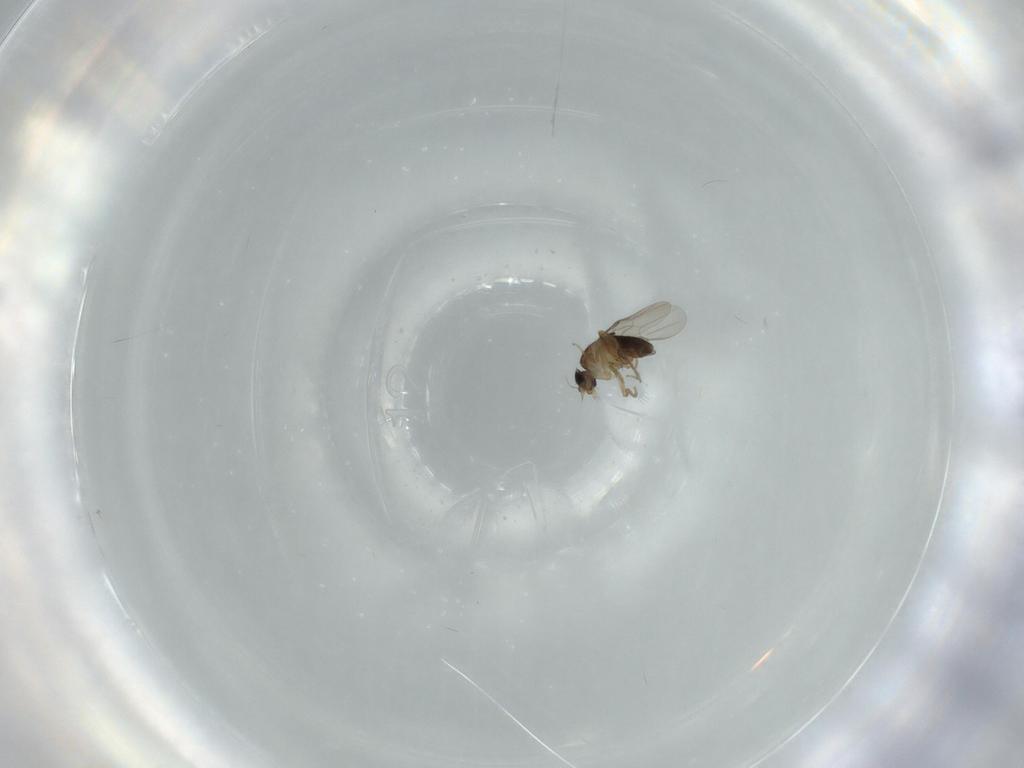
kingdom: Animalia
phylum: Arthropoda
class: Insecta
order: Diptera
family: Phoridae
